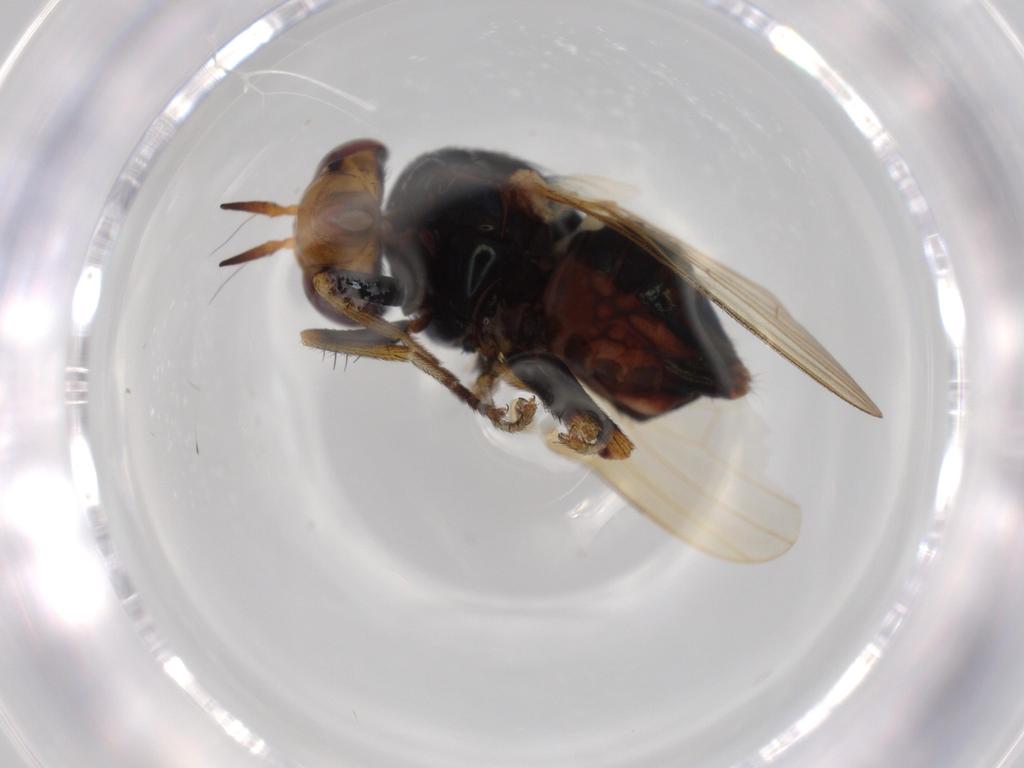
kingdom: Animalia
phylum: Arthropoda
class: Insecta
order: Diptera
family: Lauxaniidae
